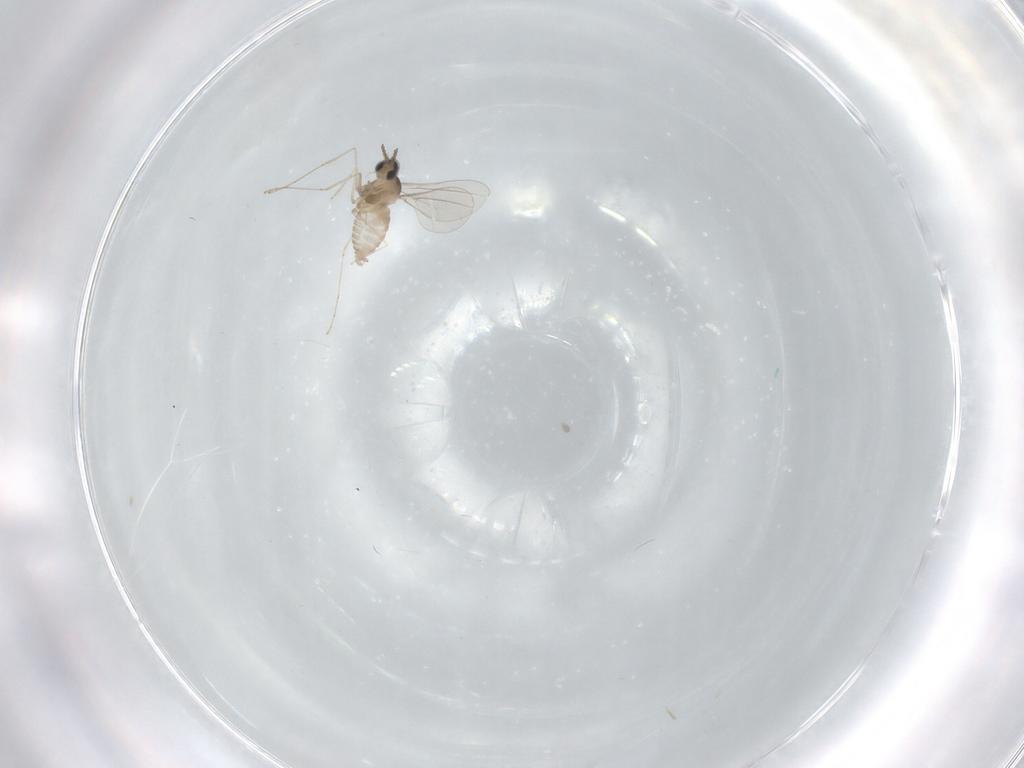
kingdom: Animalia
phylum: Arthropoda
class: Insecta
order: Diptera
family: Cecidomyiidae
